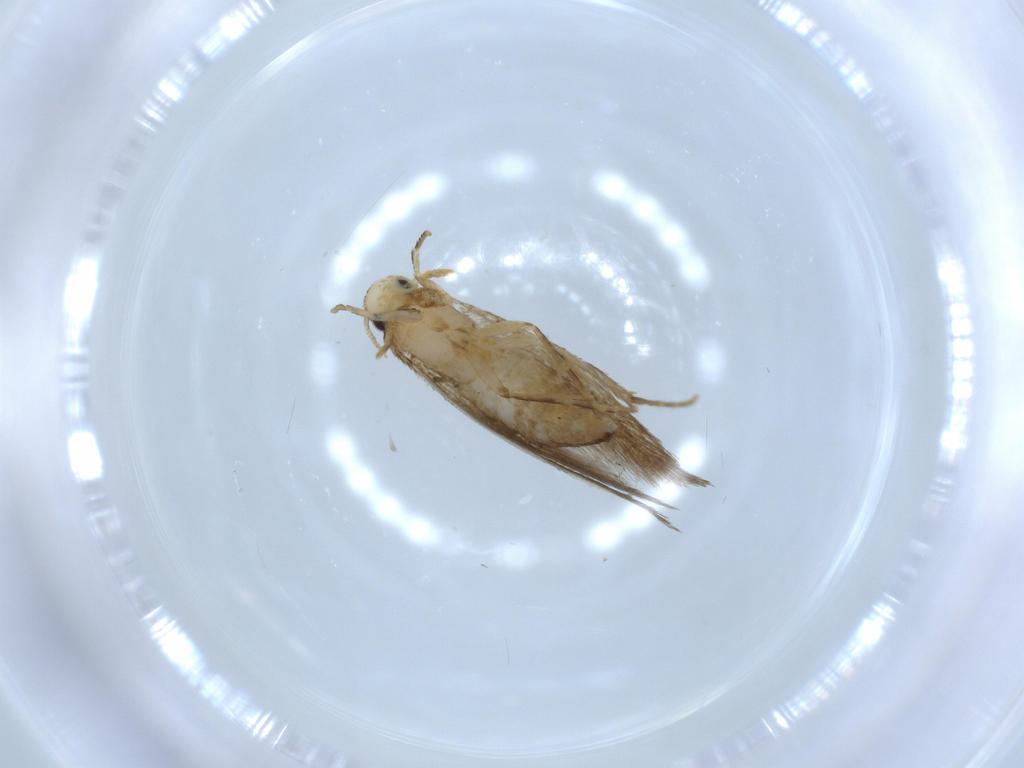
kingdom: Animalia
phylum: Arthropoda
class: Insecta
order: Lepidoptera
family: Tineidae
